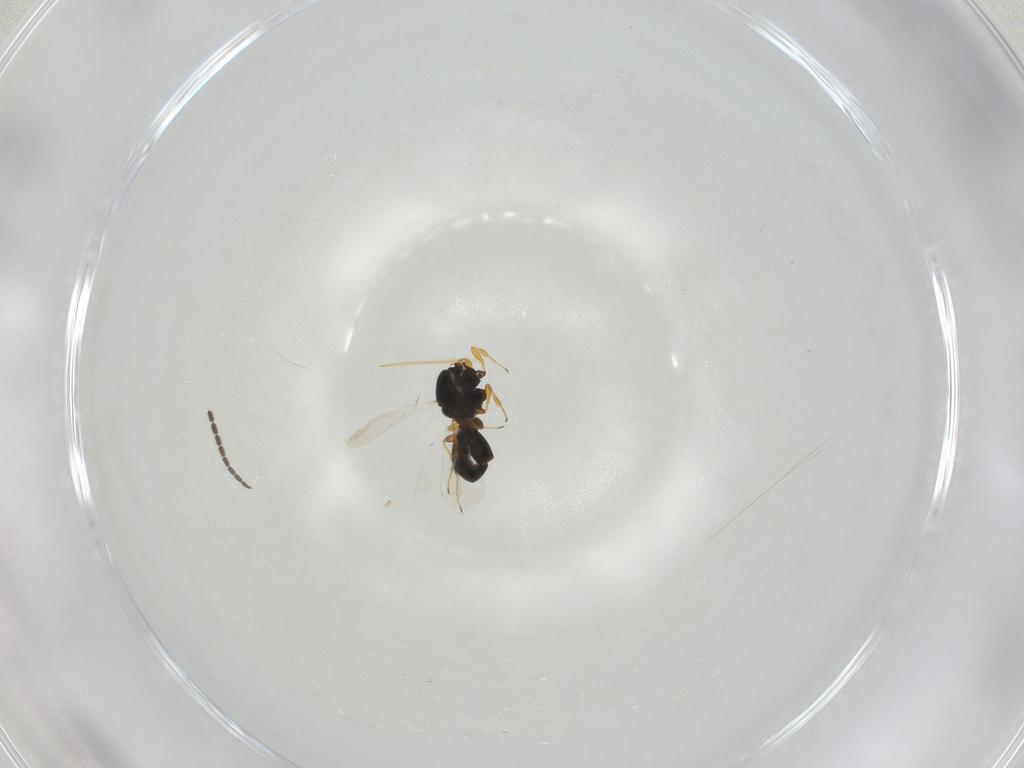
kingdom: Animalia
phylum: Arthropoda
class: Insecta
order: Hymenoptera
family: Platygastridae
